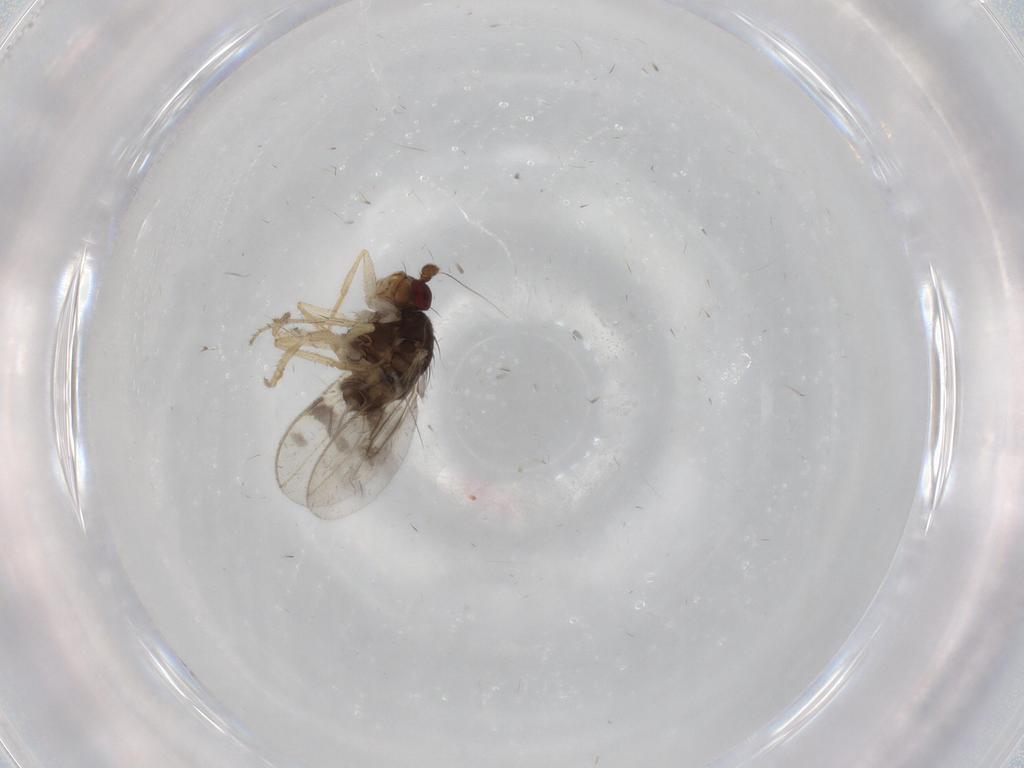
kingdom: Animalia
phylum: Arthropoda
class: Insecta
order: Diptera
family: Sphaeroceridae
